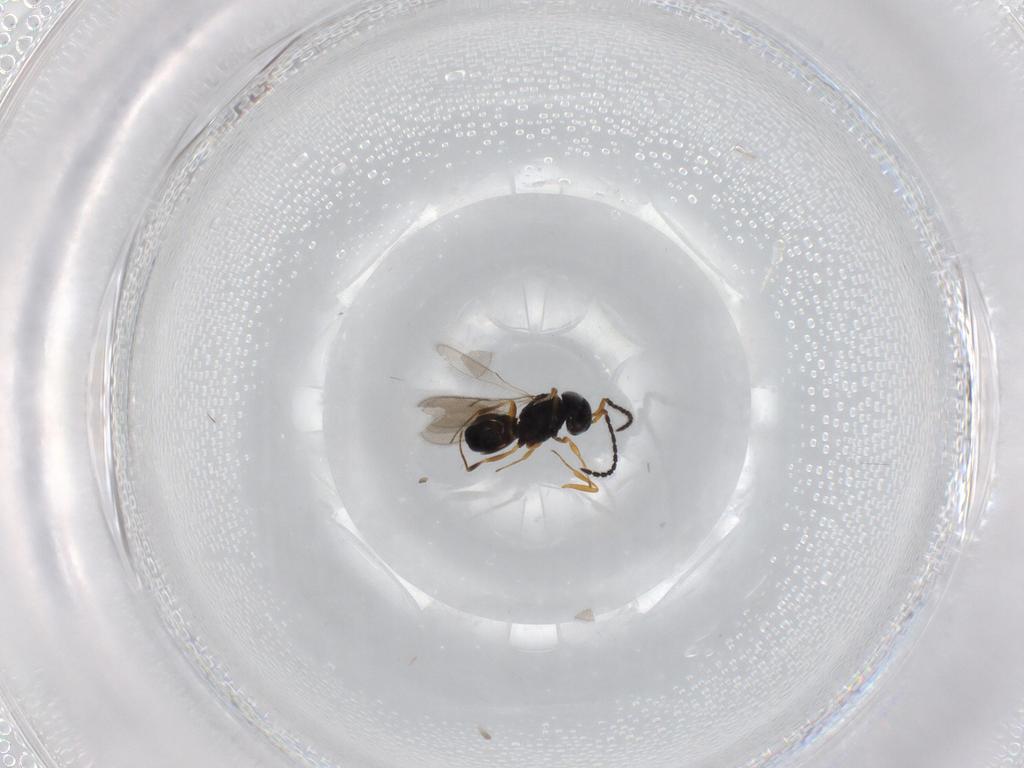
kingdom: Animalia
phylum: Arthropoda
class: Insecta
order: Hymenoptera
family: Scelionidae
